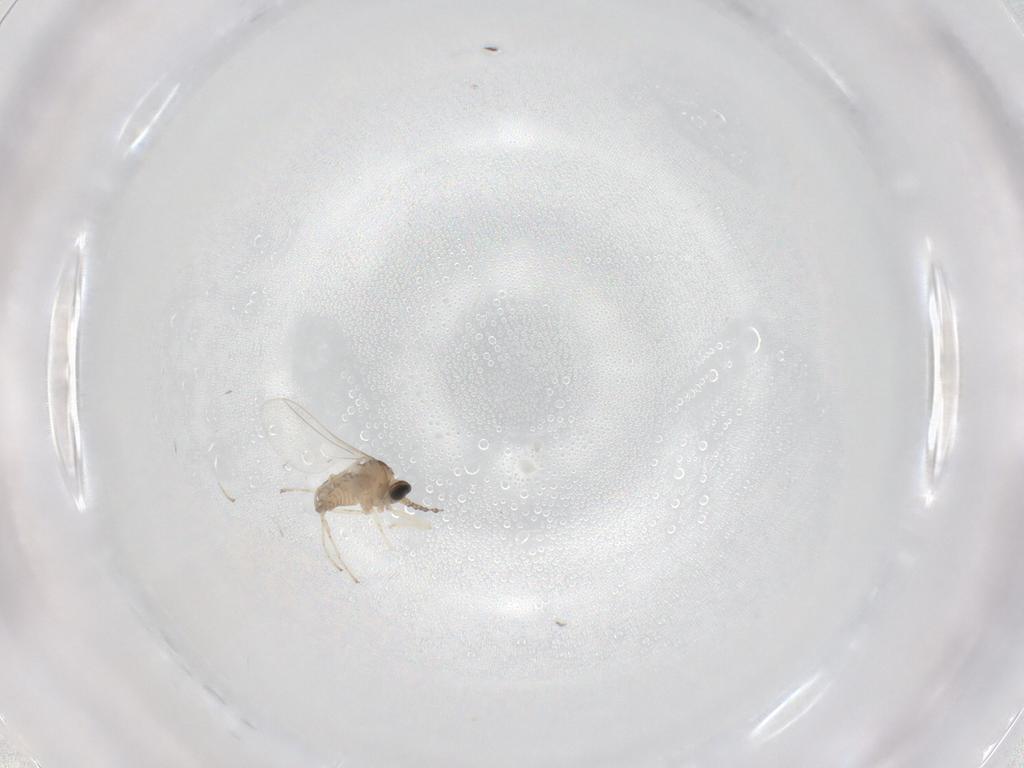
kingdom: Animalia
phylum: Arthropoda
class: Insecta
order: Diptera
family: Cecidomyiidae
